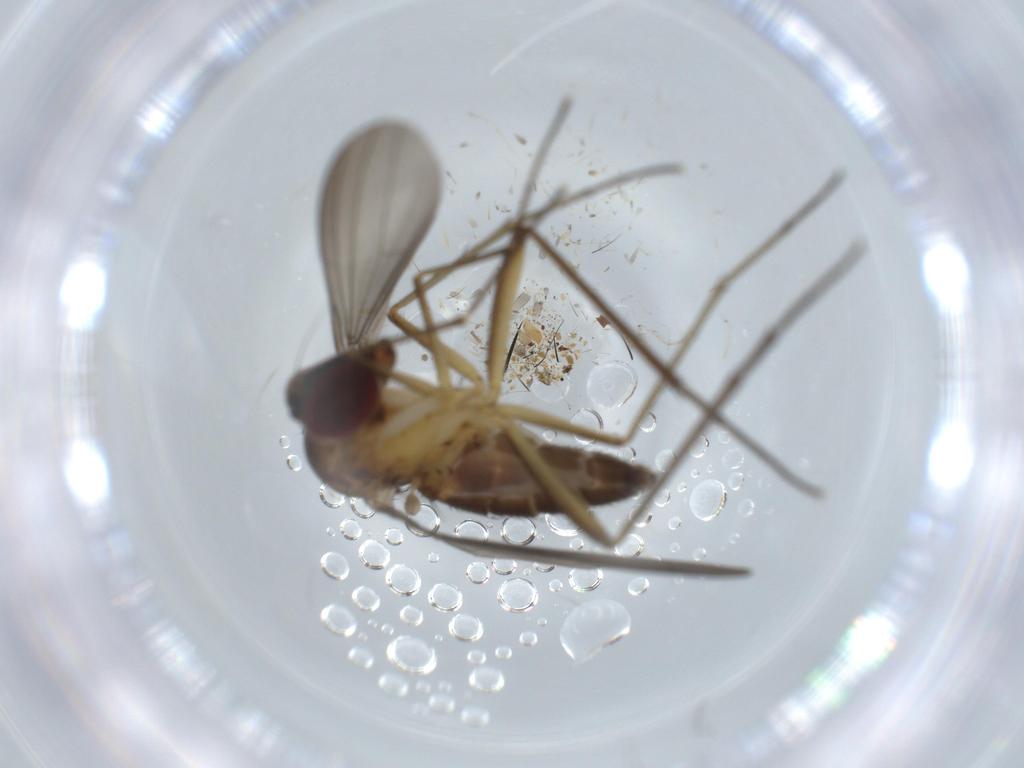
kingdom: Animalia
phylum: Arthropoda
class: Insecta
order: Diptera
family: Dolichopodidae
